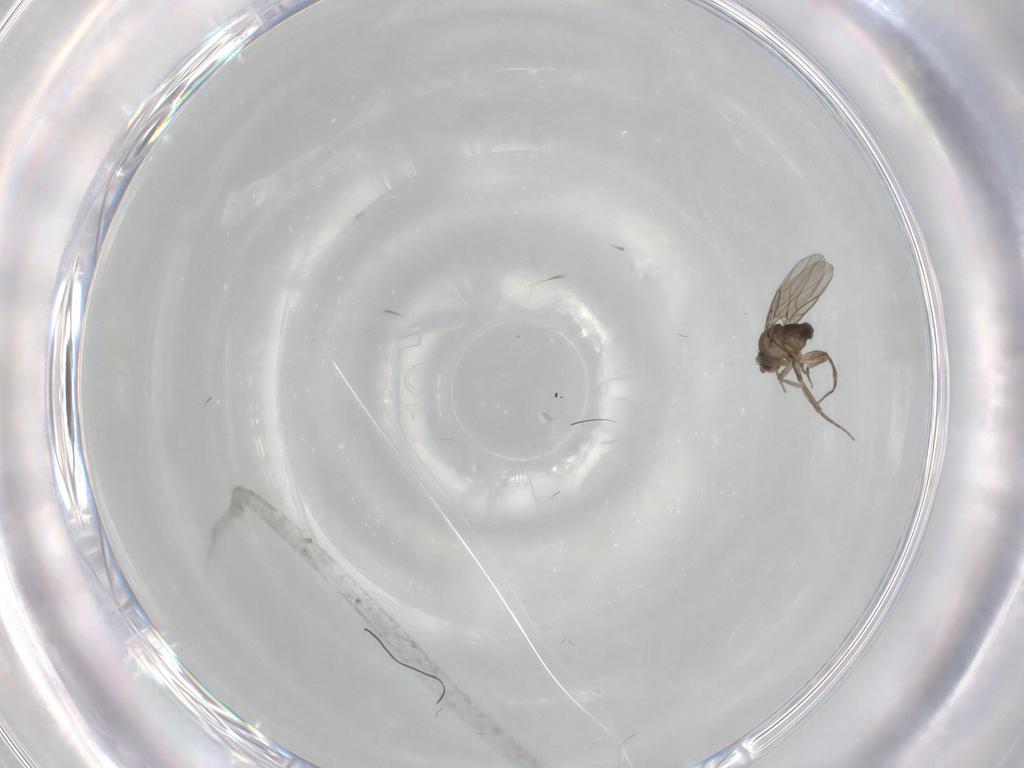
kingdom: Animalia
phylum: Arthropoda
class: Insecta
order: Diptera
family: Phoridae
